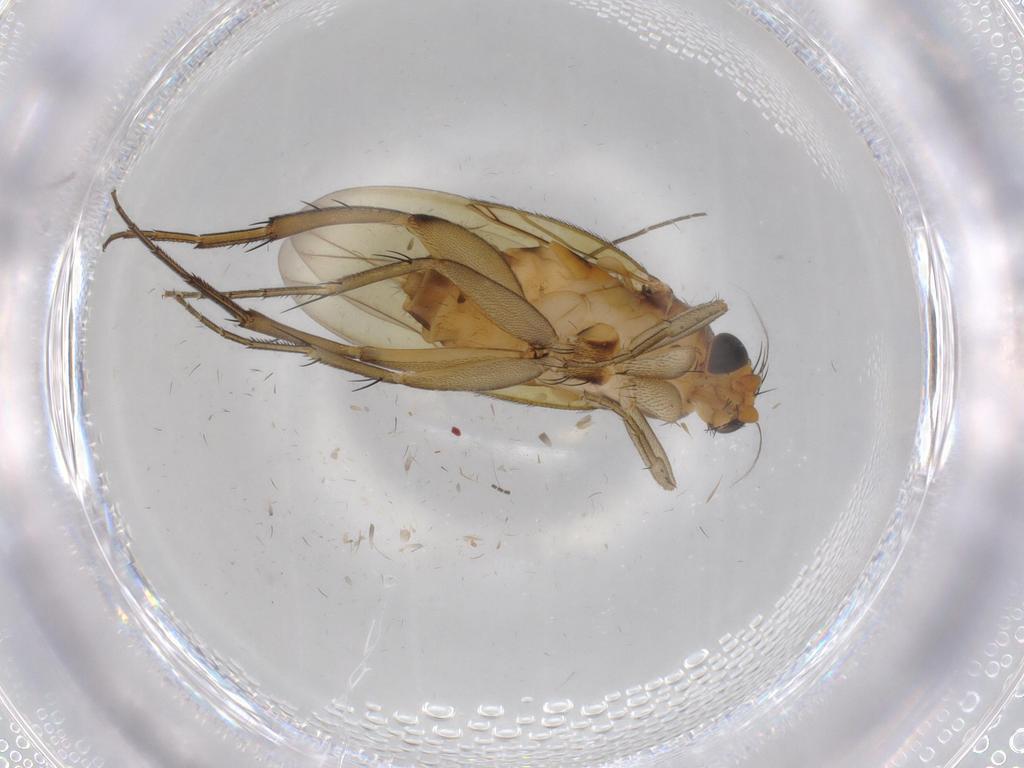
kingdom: Animalia
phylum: Arthropoda
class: Insecta
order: Diptera
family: Phoridae
